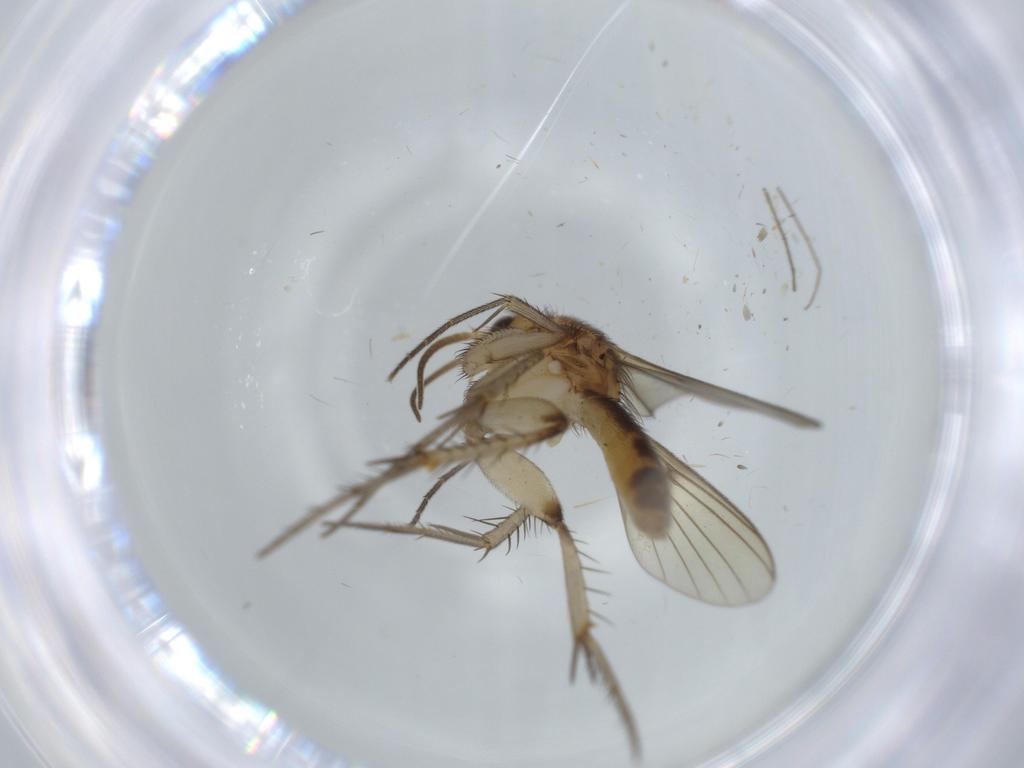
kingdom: Animalia
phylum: Arthropoda
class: Insecta
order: Diptera
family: Mycetophilidae
